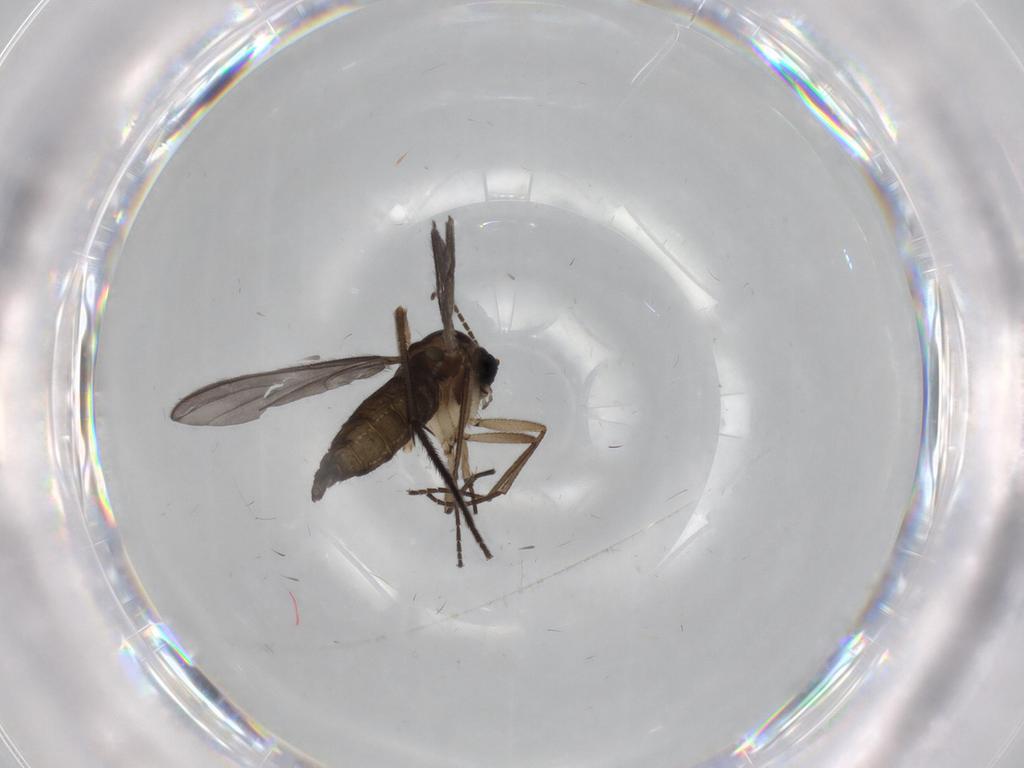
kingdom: Animalia
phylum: Arthropoda
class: Insecta
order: Diptera
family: Sciaridae
